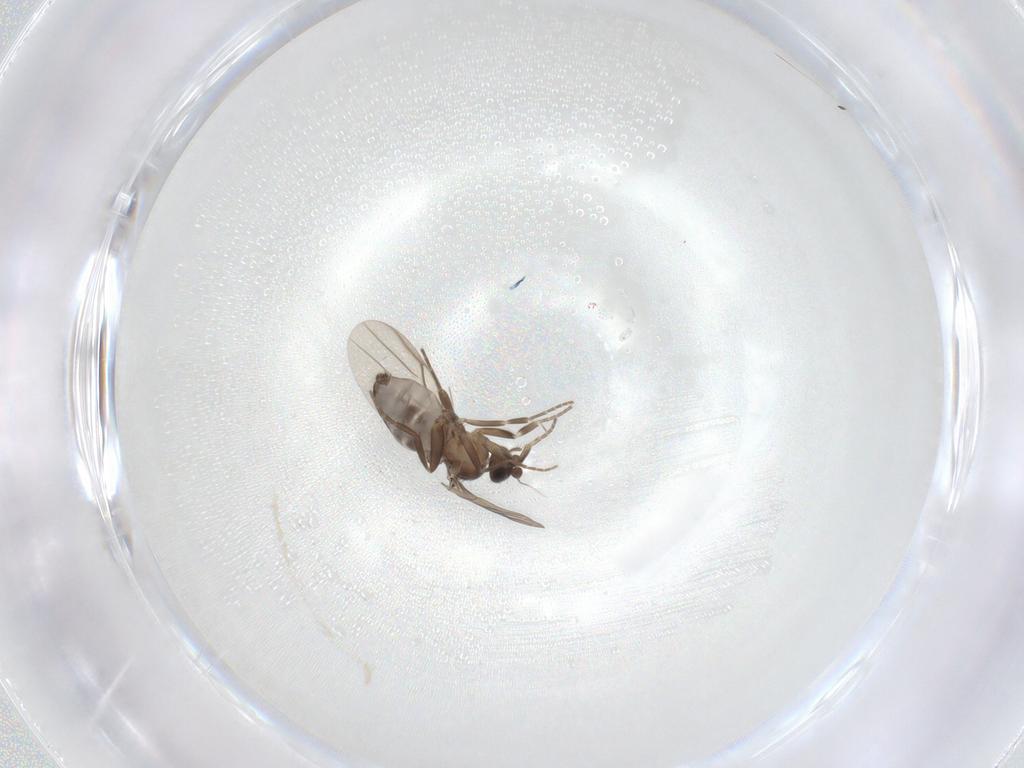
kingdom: Animalia
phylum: Arthropoda
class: Insecta
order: Diptera
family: Phoridae
